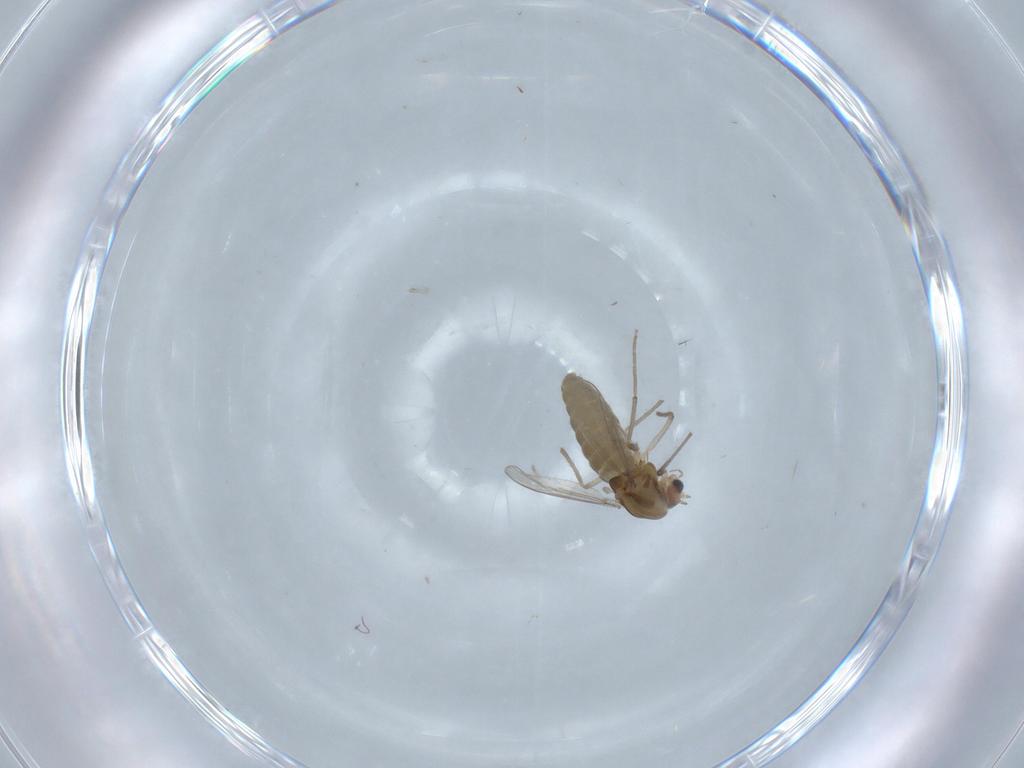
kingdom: Animalia
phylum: Arthropoda
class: Insecta
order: Diptera
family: Chironomidae
